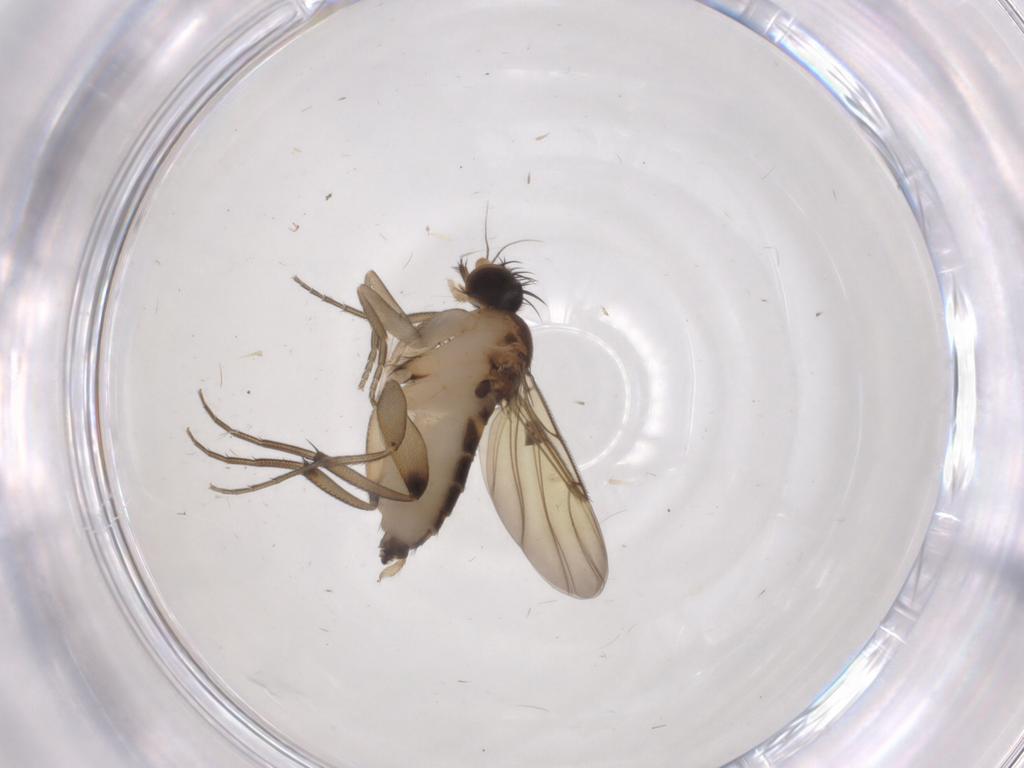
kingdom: Animalia
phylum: Arthropoda
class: Insecta
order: Diptera
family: Phoridae
